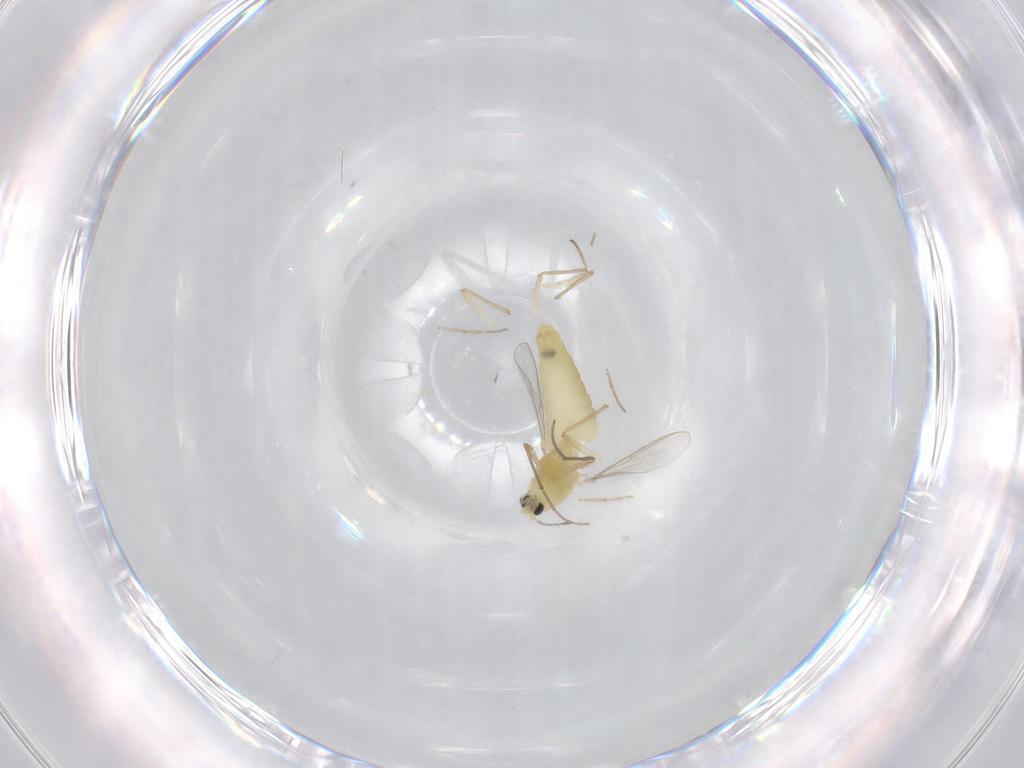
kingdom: Animalia
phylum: Arthropoda
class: Insecta
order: Diptera
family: Chironomidae
